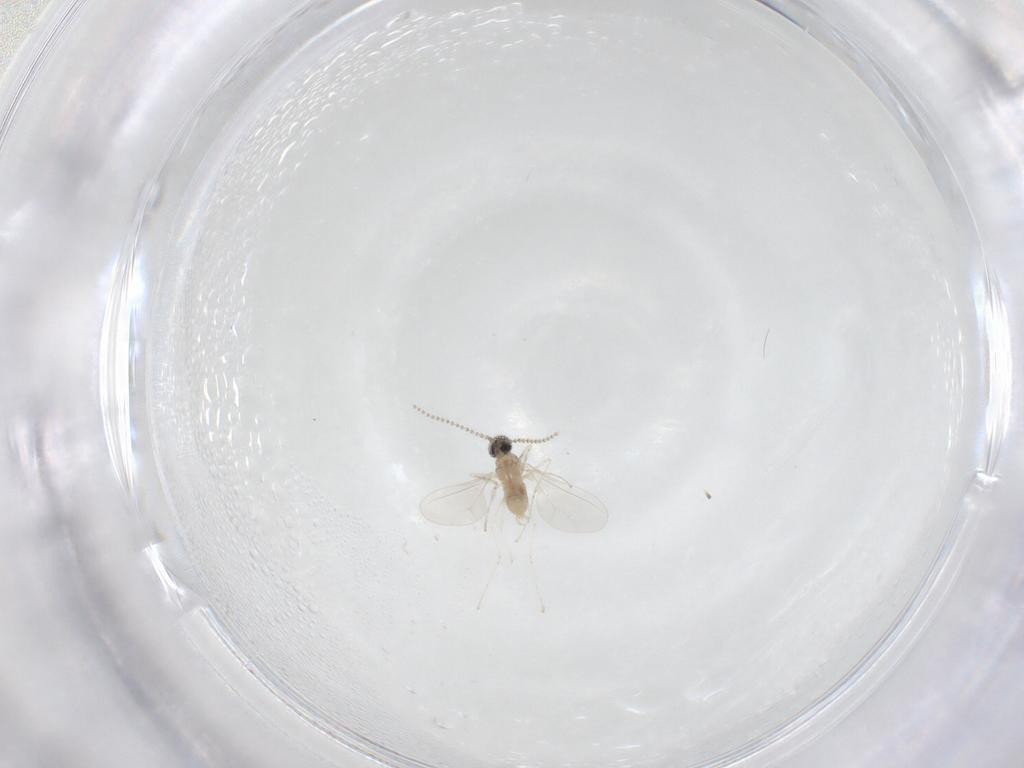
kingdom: Animalia
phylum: Arthropoda
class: Insecta
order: Diptera
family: Cecidomyiidae
